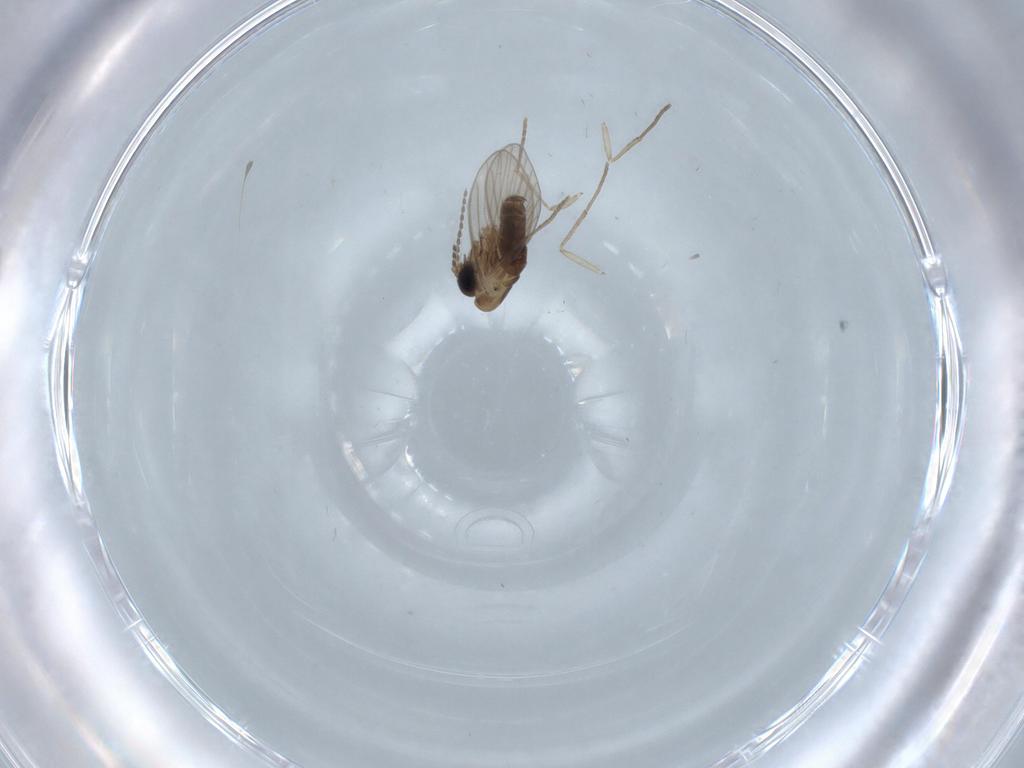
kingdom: Animalia
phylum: Arthropoda
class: Insecta
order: Diptera
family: Psychodidae
